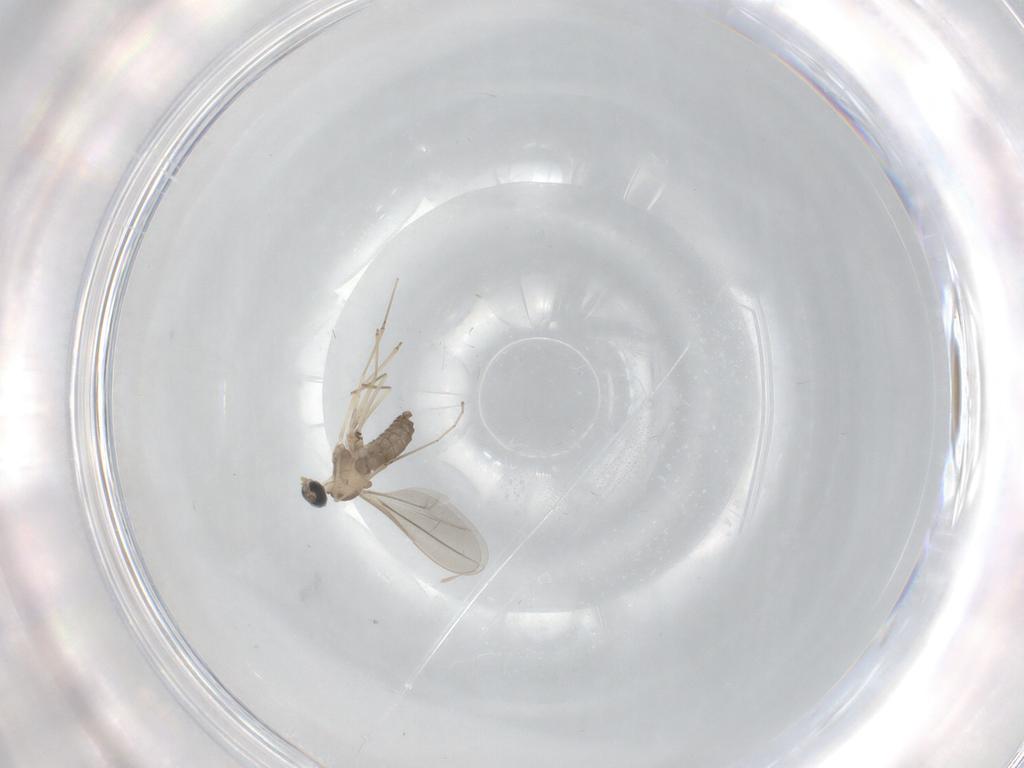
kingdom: Animalia
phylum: Arthropoda
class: Insecta
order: Diptera
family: Cecidomyiidae
